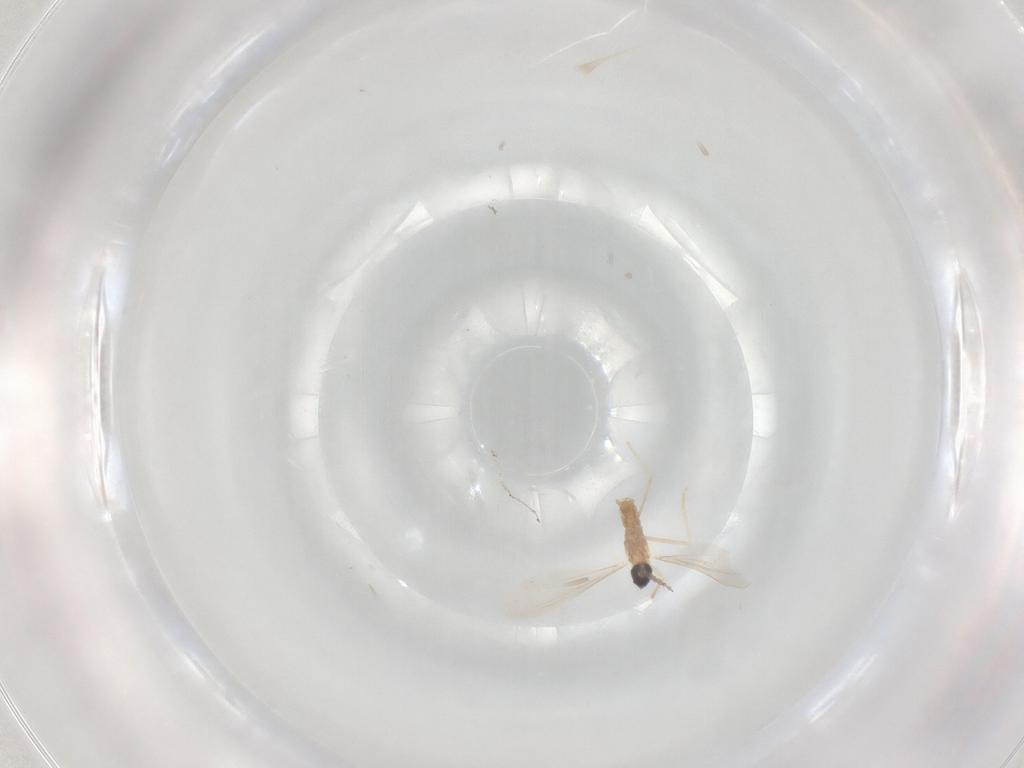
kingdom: Animalia
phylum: Arthropoda
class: Insecta
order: Diptera
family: Cecidomyiidae
